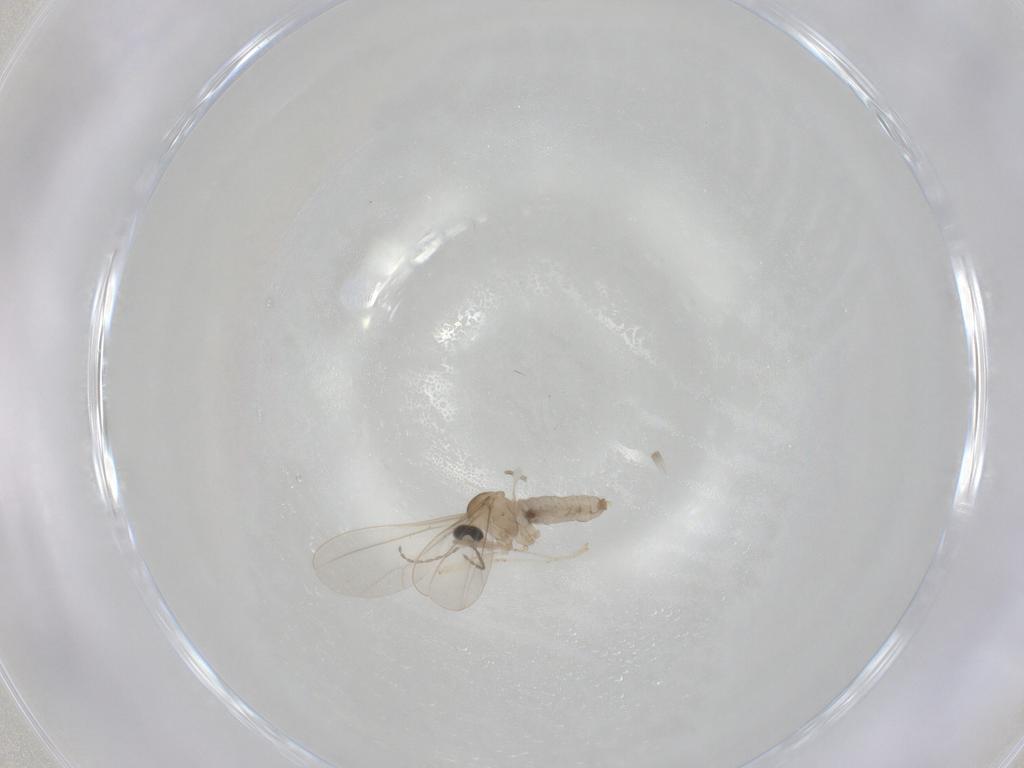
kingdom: Animalia
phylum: Arthropoda
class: Insecta
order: Diptera
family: Cecidomyiidae
